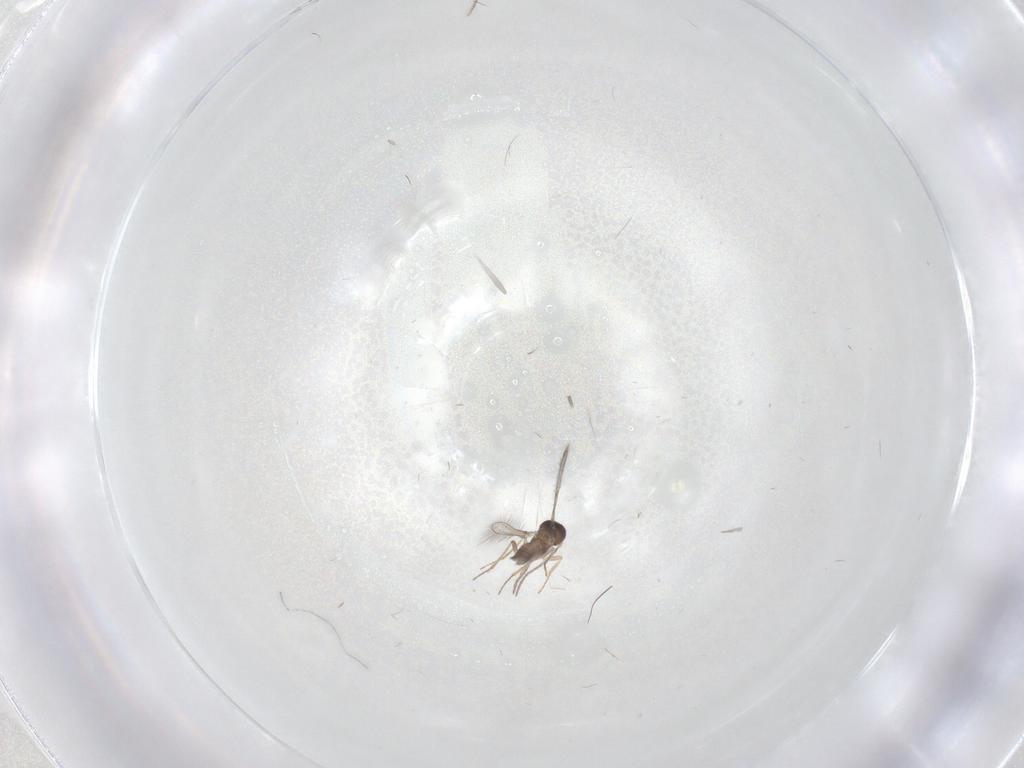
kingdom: Animalia
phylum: Arthropoda
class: Insecta
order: Hymenoptera
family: Mymaridae
